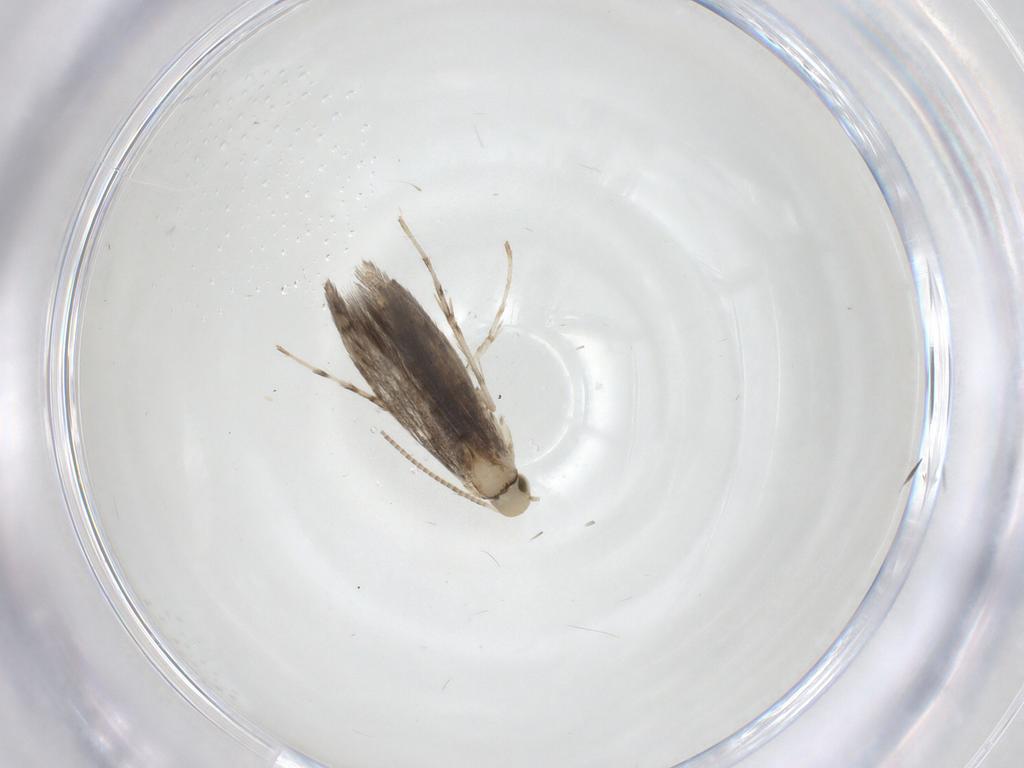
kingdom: Animalia
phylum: Arthropoda
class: Insecta
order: Lepidoptera
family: Gracillariidae
